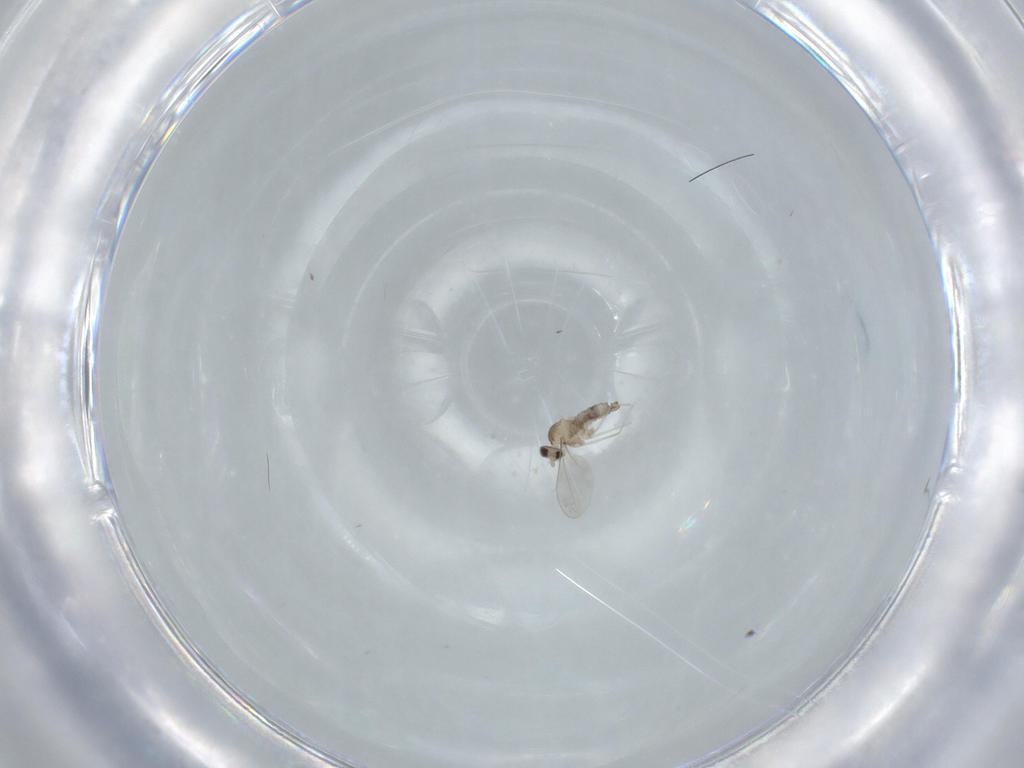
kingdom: Animalia
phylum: Arthropoda
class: Insecta
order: Diptera
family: Cecidomyiidae
